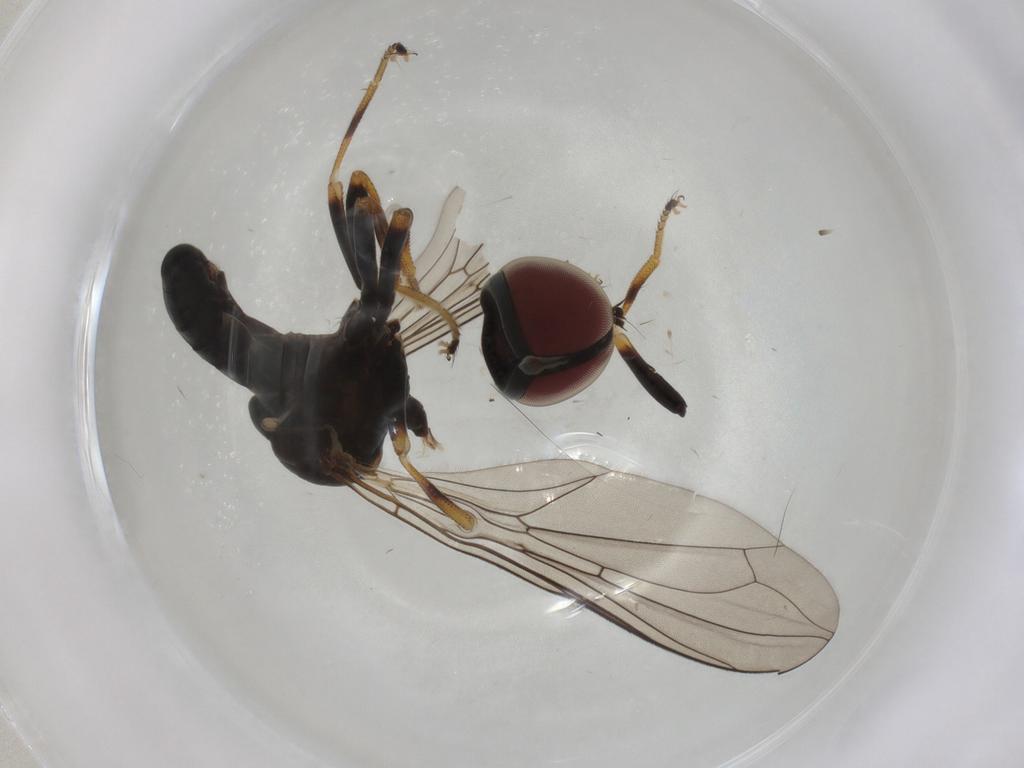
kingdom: Animalia
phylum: Arthropoda
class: Insecta
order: Diptera
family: Pipunculidae
